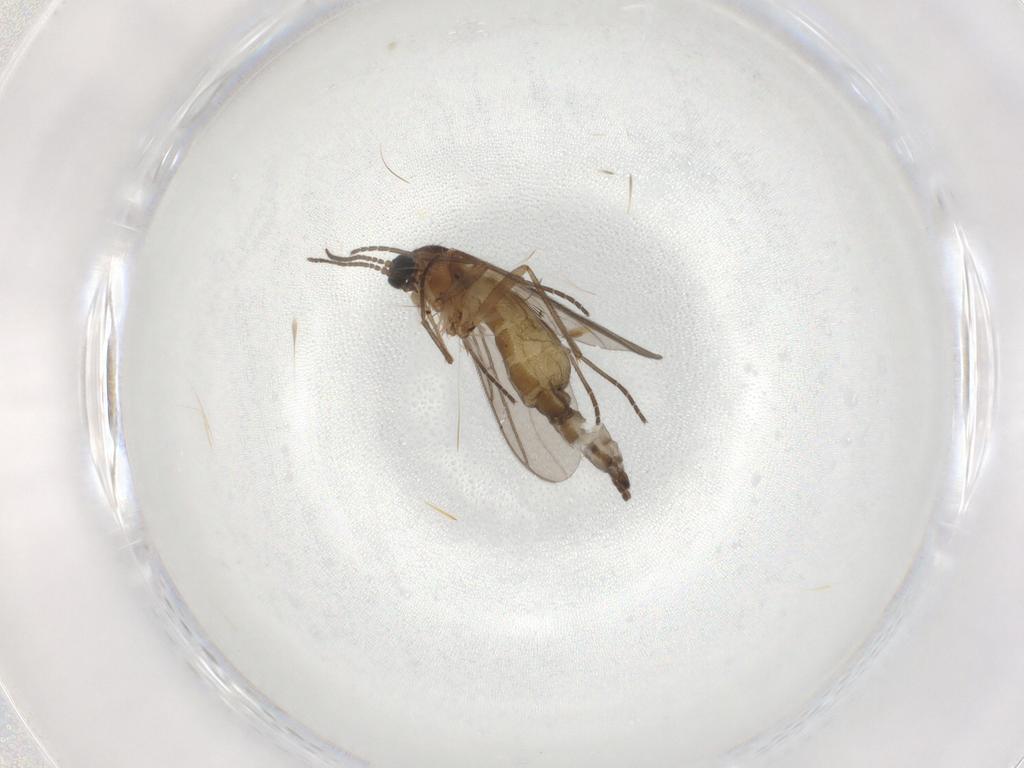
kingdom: Animalia
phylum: Arthropoda
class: Insecta
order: Diptera
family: Sciaridae
